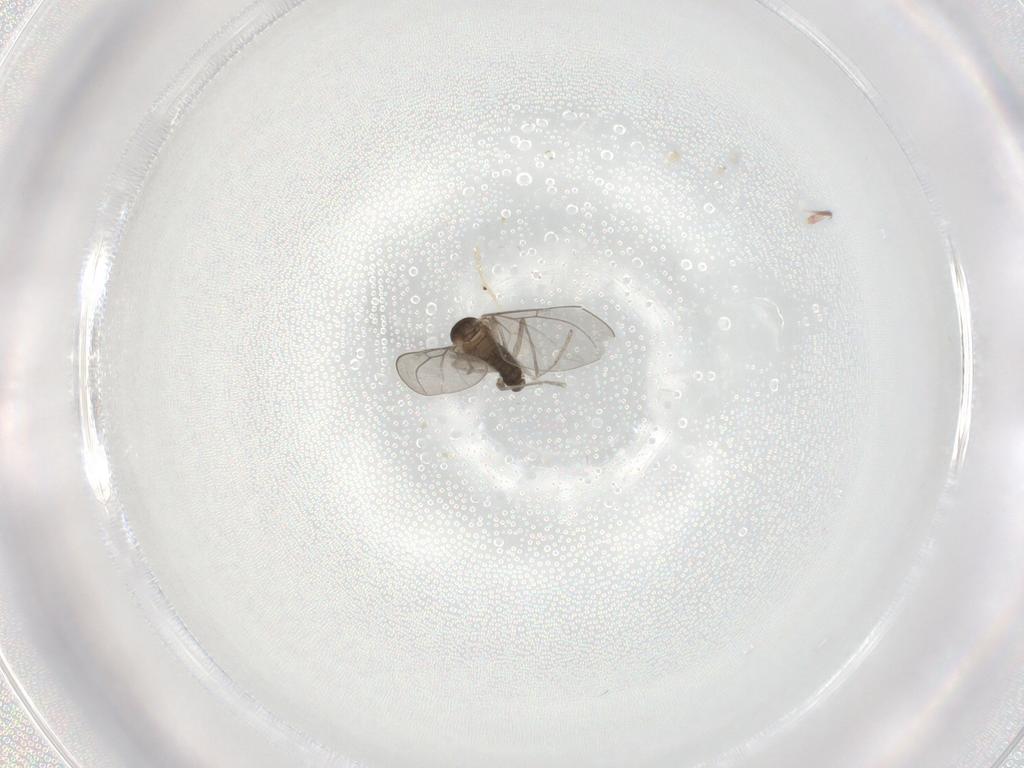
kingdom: Animalia
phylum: Arthropoda
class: Insecta
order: Diptera
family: Cecidomyiidae
